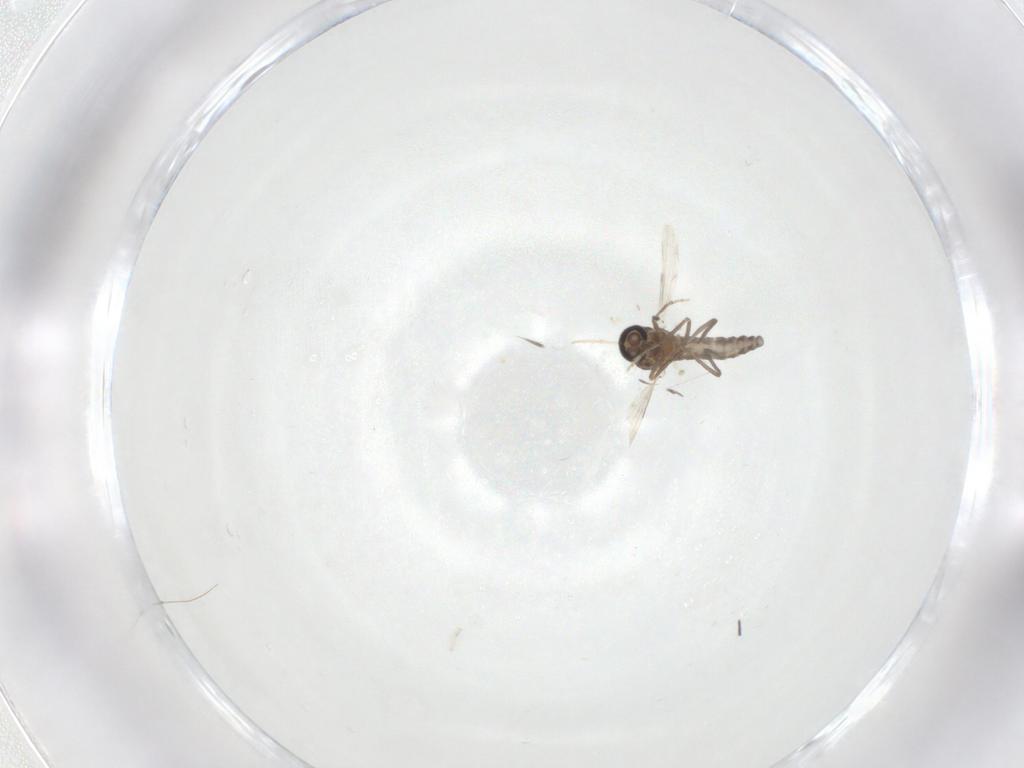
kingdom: Animalia
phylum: Arthropoda
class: Insecta
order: Diptera
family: Ceratopogonidae
